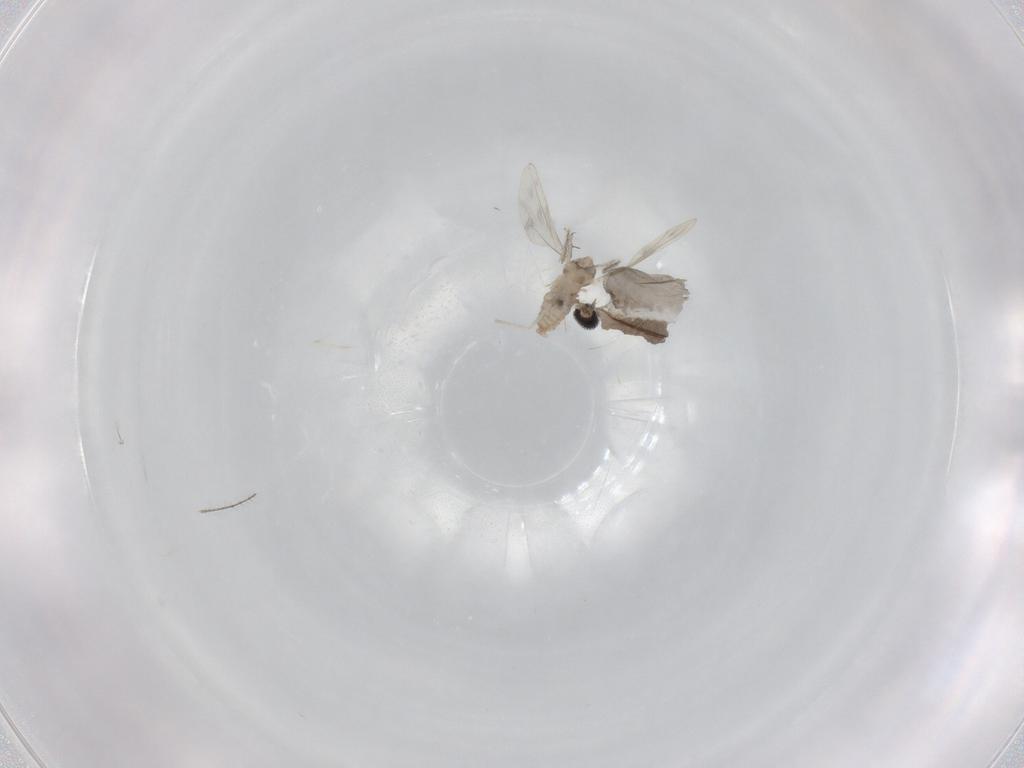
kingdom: Animalia
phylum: Arthropoda
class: Insecta
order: Diptera
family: Cecidomyiidae
